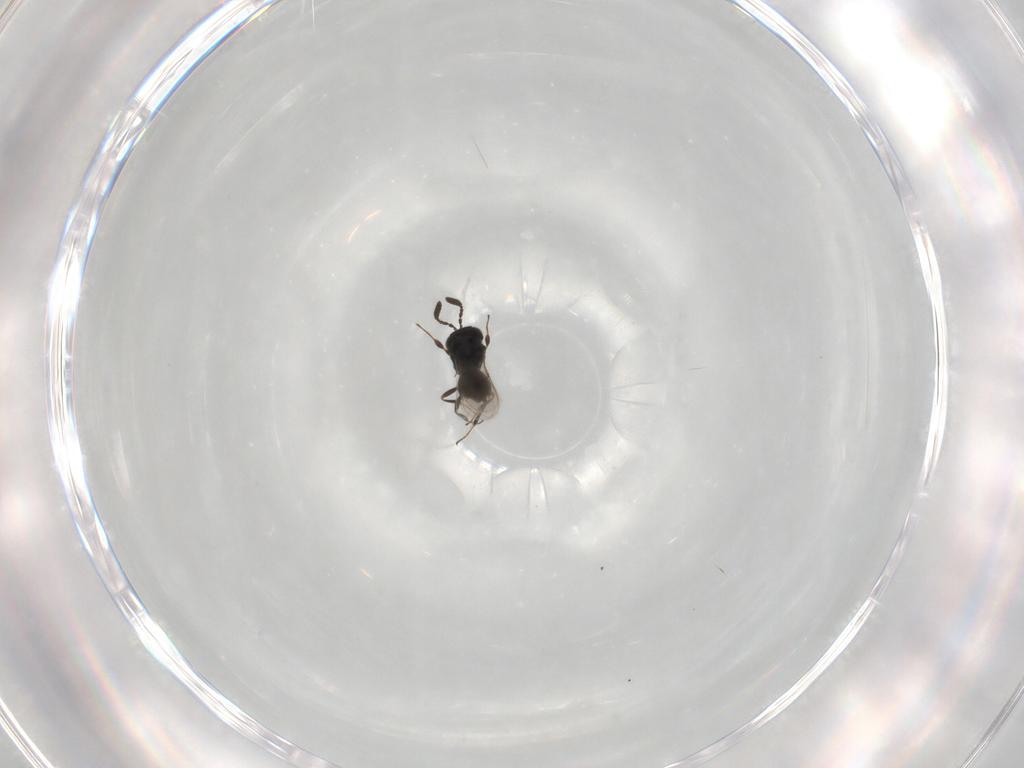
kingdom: Animalia
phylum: Arthropoda
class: Insecta
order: Hymenoptera
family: Scelionidae
